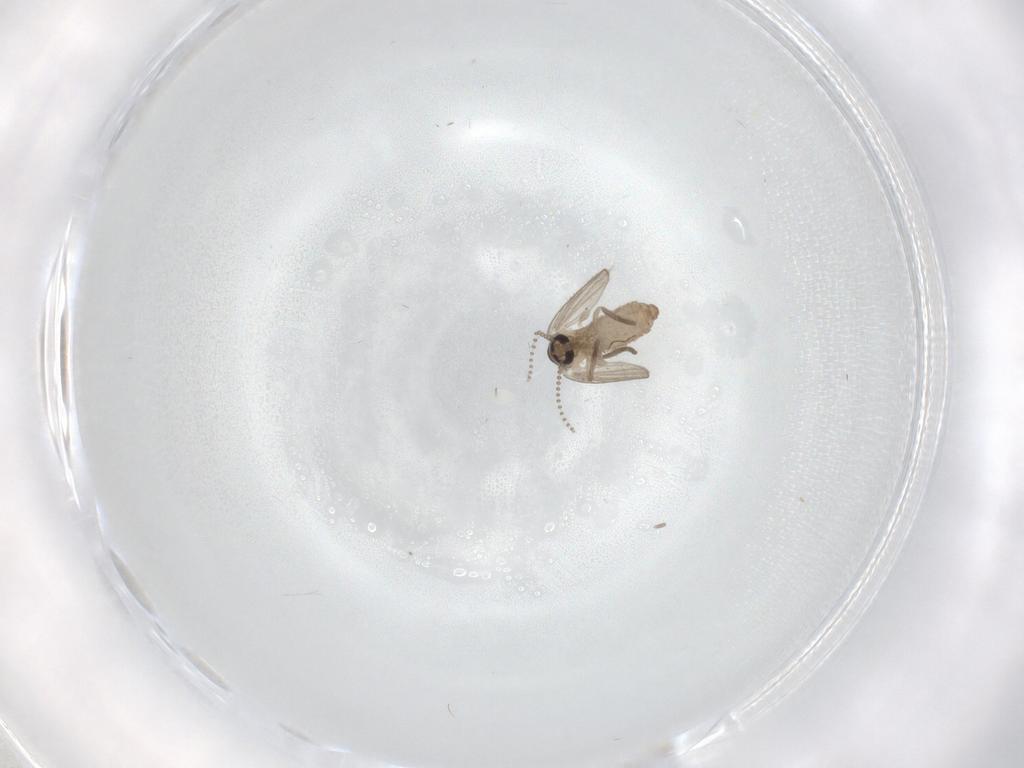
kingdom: Animalia
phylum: Arthropoda
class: Insecta
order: Diptera
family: Psychodidae
